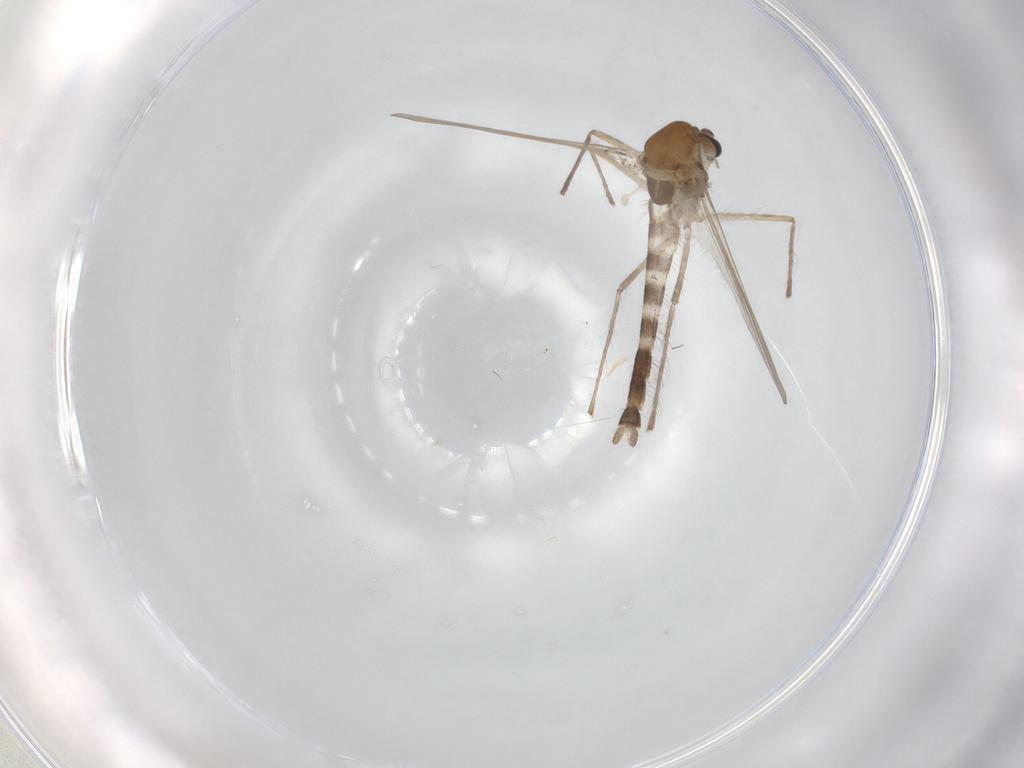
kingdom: Animalia
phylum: Arthropoda
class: Insecta
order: Diptera
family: Chironomidae
